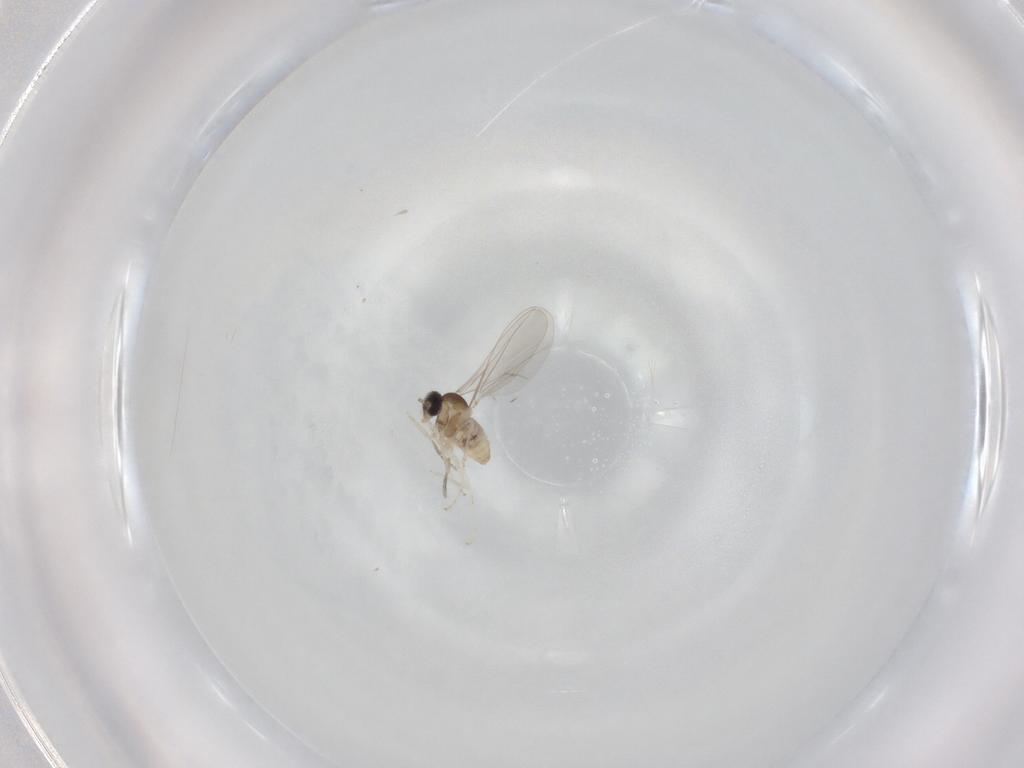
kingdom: Animalia
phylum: Arthropoda
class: Insecta
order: Diptera
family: Cecidomyiidae
